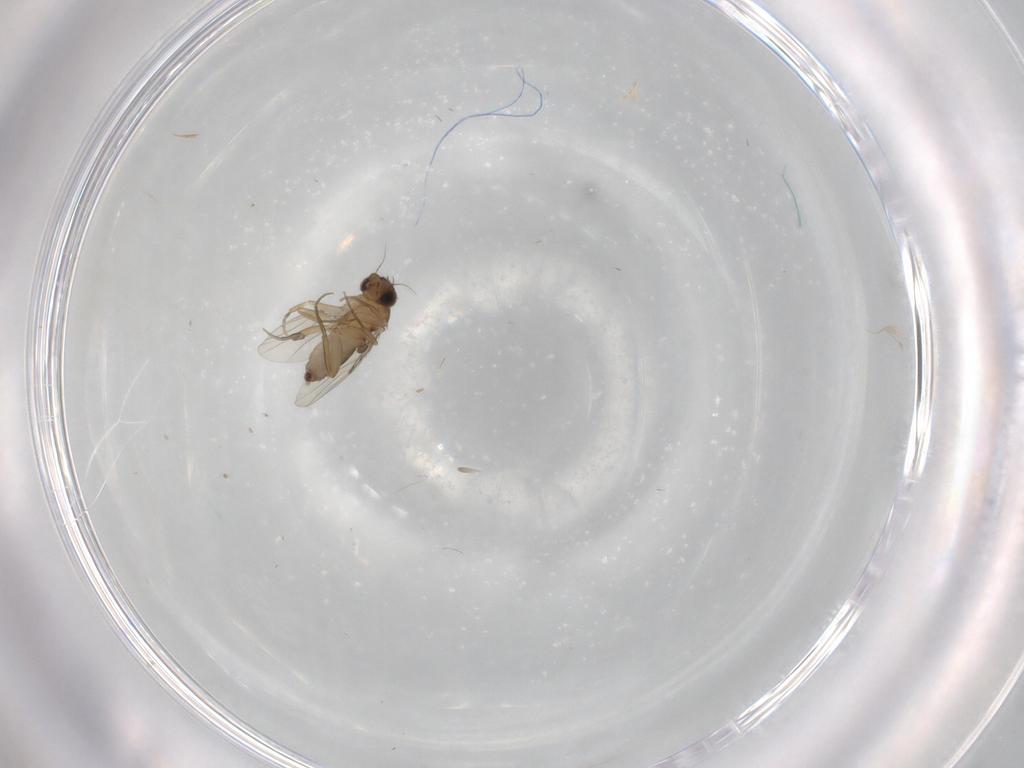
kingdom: Animalia
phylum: Arthropoda
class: Insecta
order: Diptera
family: Phoridae
